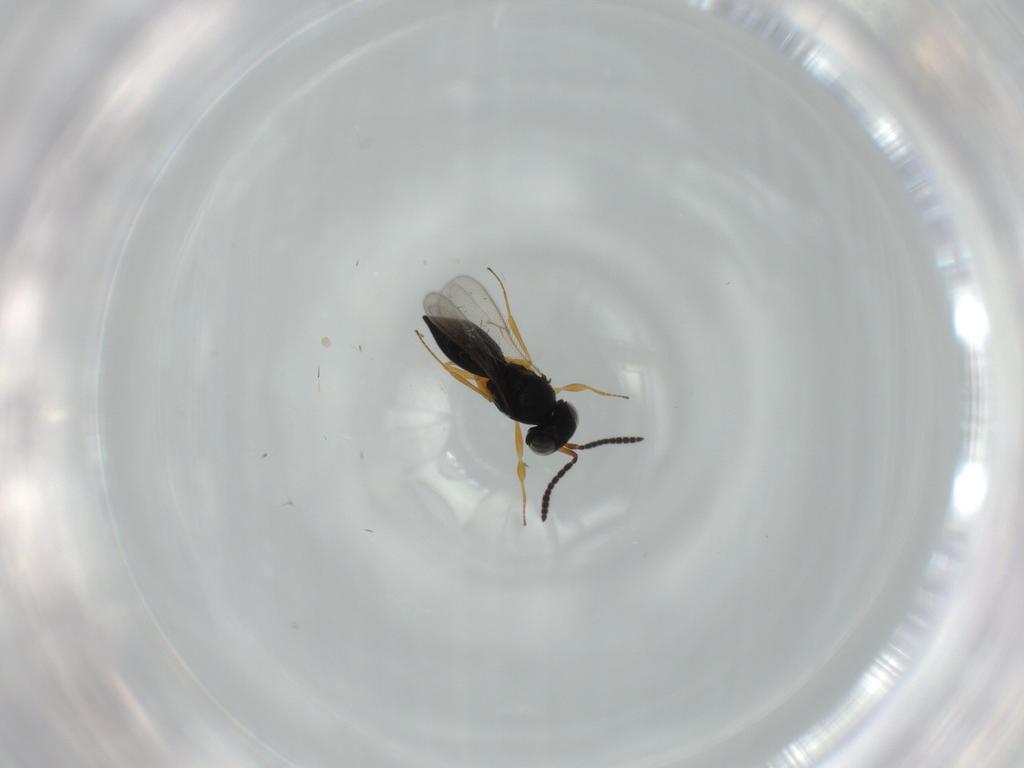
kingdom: Animalia
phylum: Arthropoda
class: Insecta
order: Hymenoptera
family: Scelionidae
